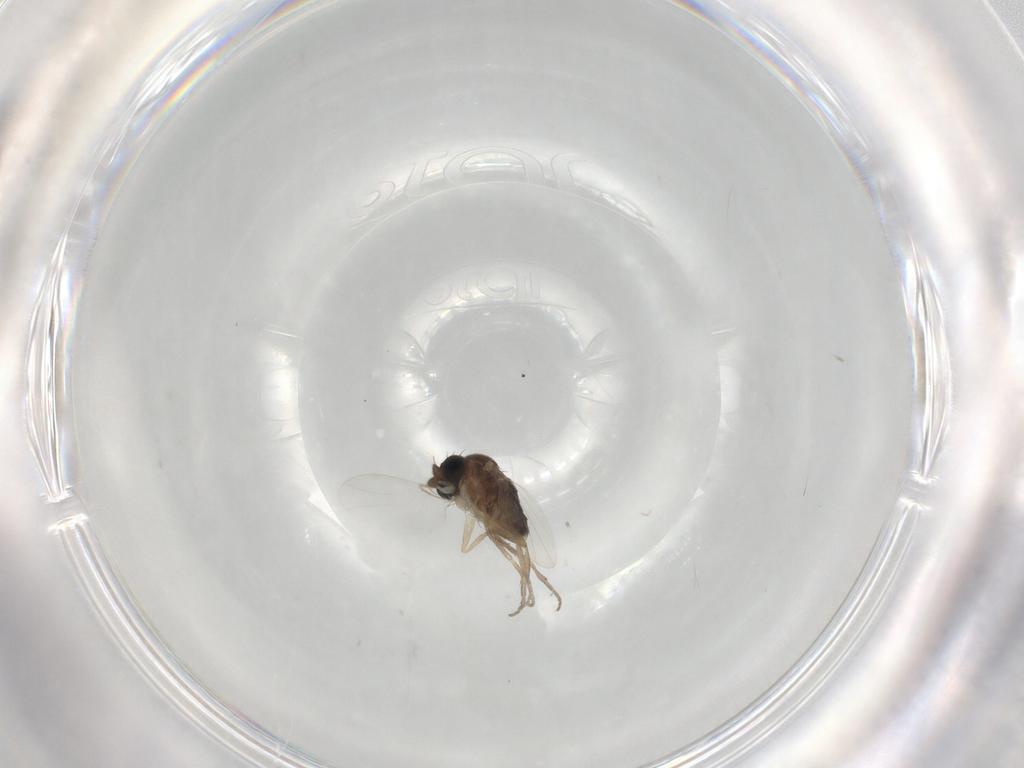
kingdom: Animalia
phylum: Arthropoda
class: Insecta
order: Diptera
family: Phoridae
